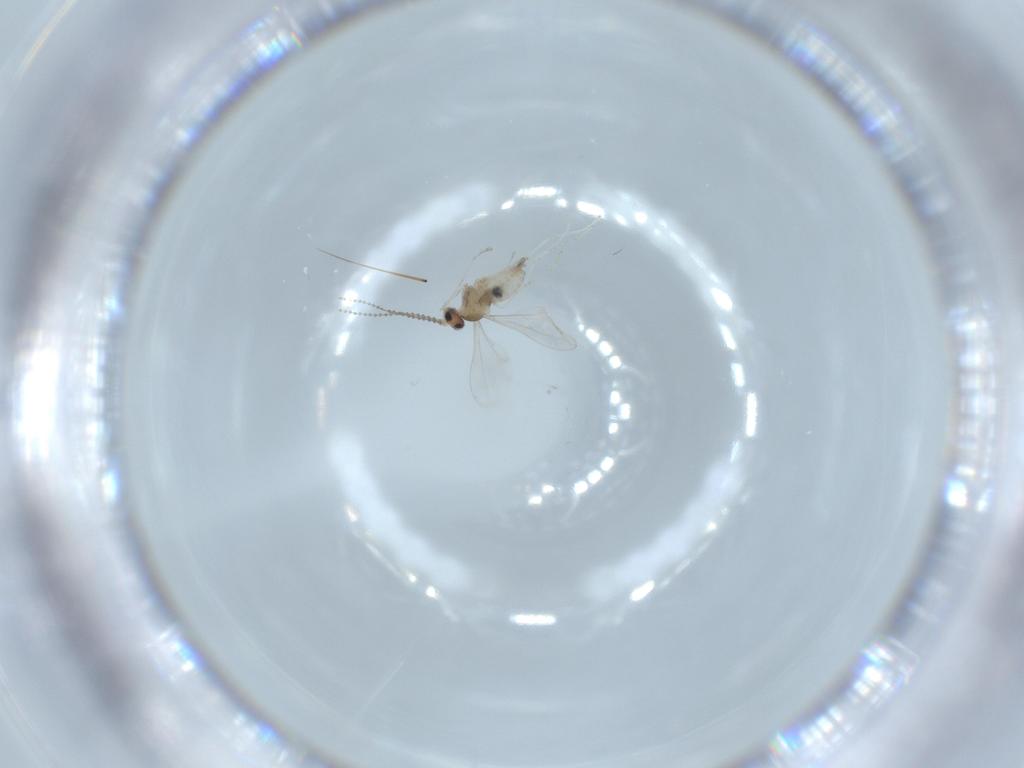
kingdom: Animalia
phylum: Arthropoda
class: Insecta
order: Diptera
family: Cecidomyiidae
